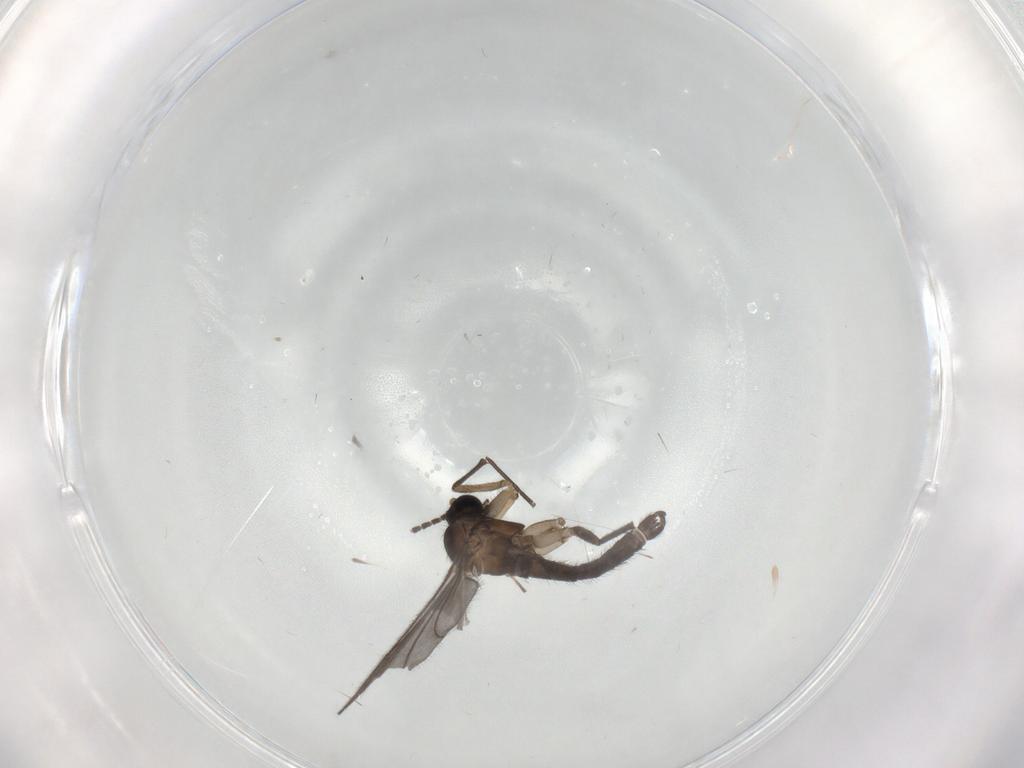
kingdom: Animalia
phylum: Arthropoda
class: Insecta
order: Diptera
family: Sciaridae
